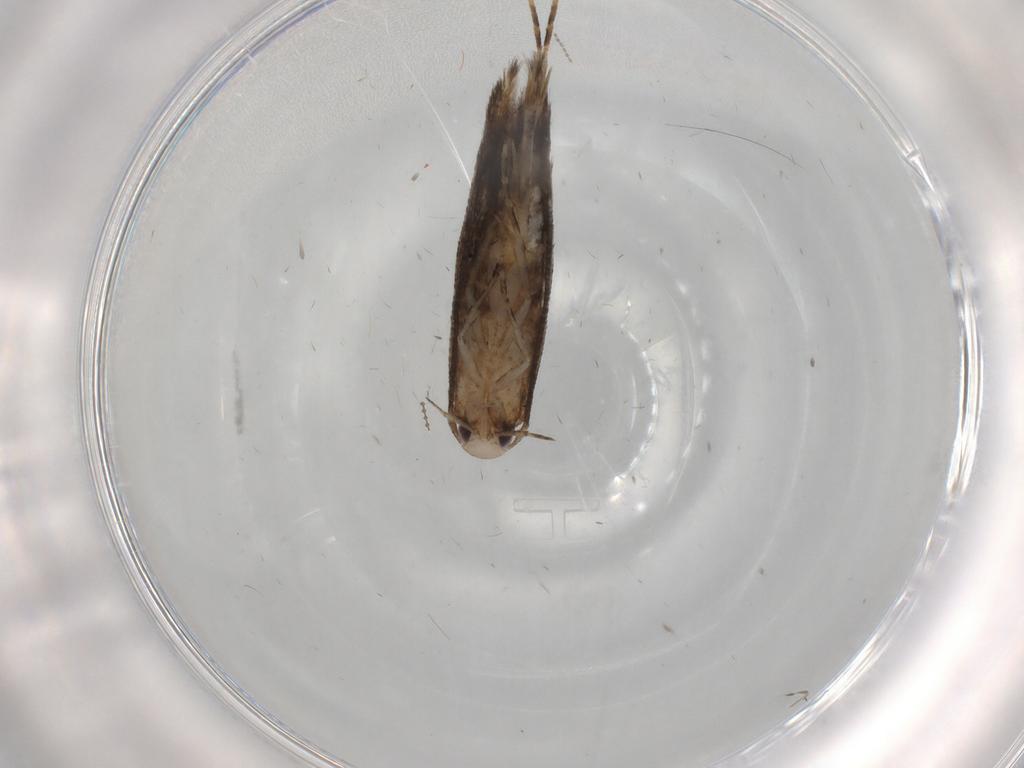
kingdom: Animalia
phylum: Arthropoda
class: Insecta
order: Lepidoptera
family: Cosmopterigidae
